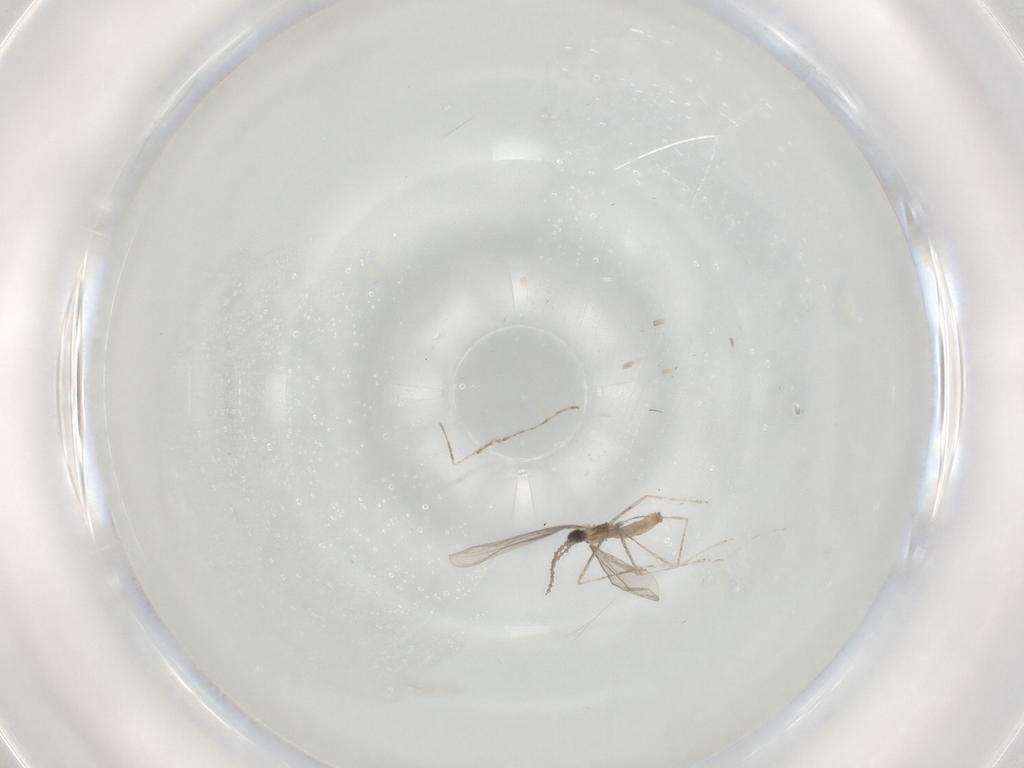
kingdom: Animalia
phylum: Arthropoda
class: Insecta
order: Diptera
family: Cecidomyiidae
